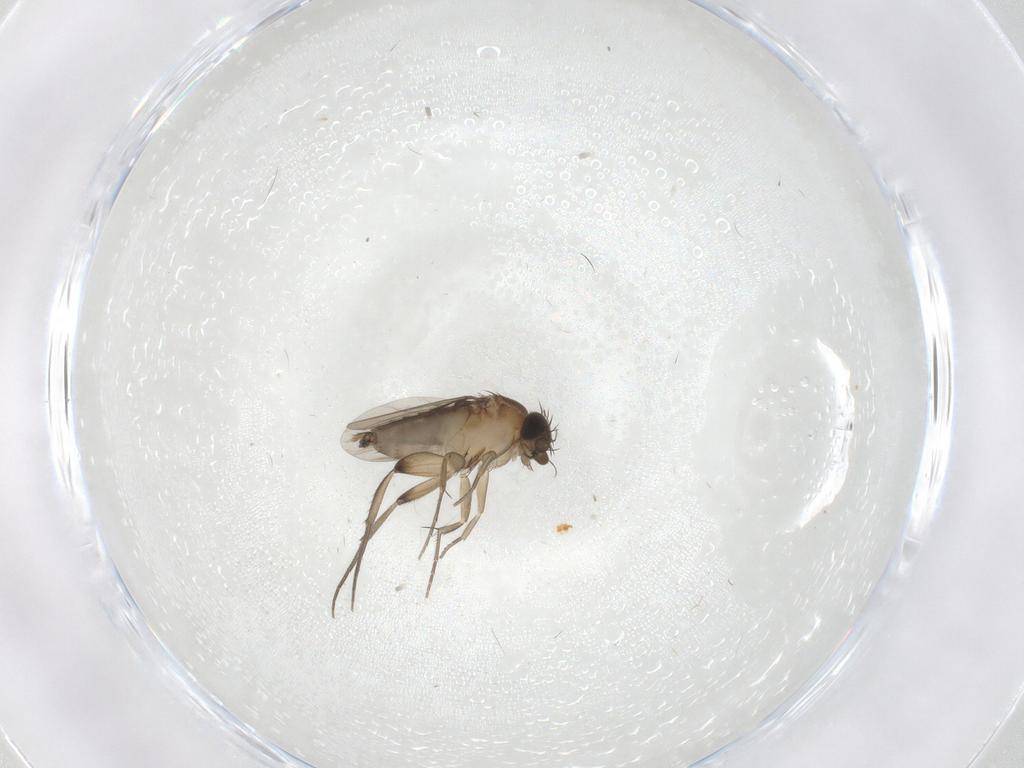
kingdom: Animalia
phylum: Arthropoda
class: Insecta
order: Diptera
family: Phoridae
